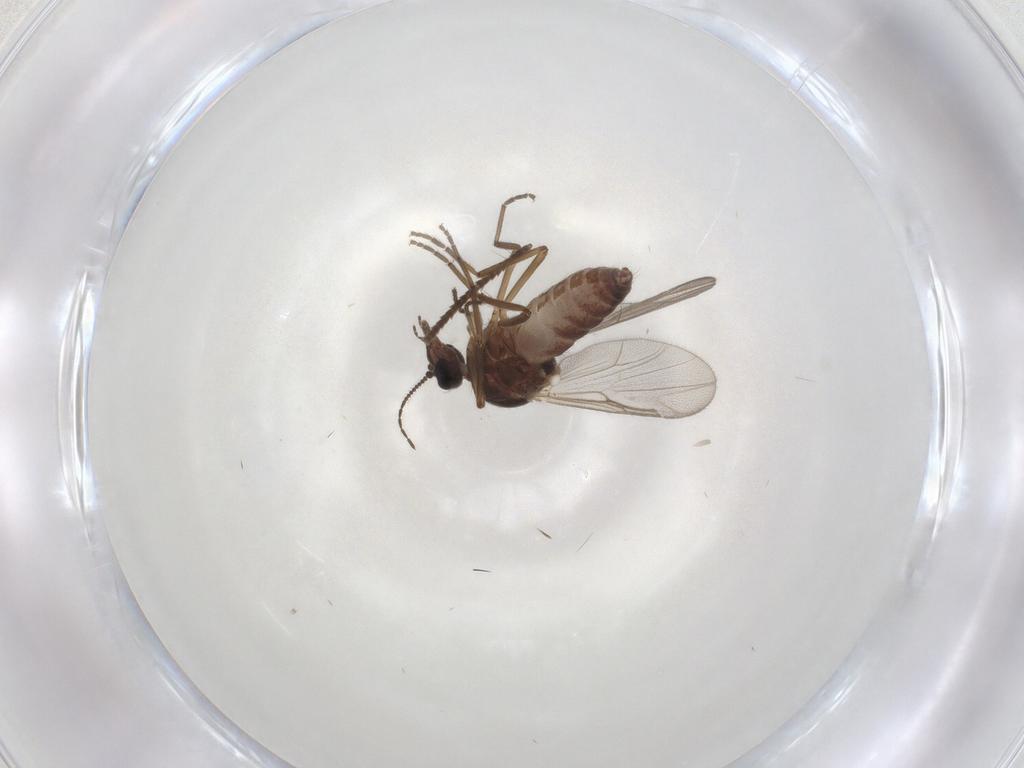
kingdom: Animalia
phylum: Arthropoda
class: Insecta
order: Diptera
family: Ceratopogonidae
